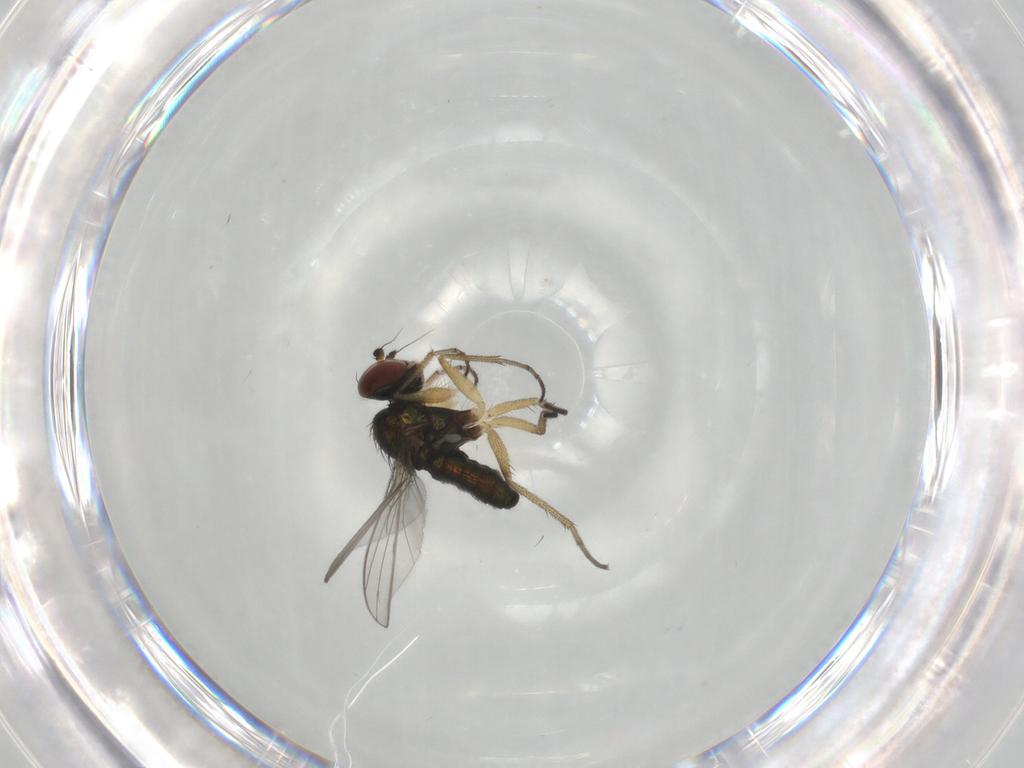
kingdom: Animalia
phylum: Arthropoda
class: Insecta
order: Diptera
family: Dolichopodidae
